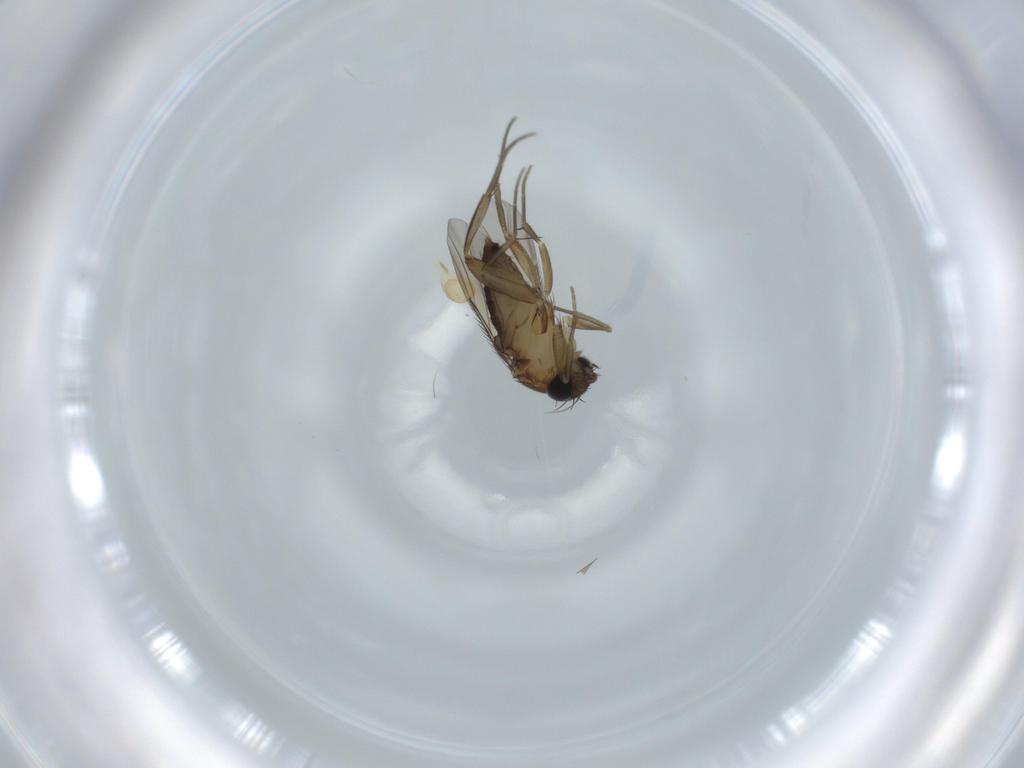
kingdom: Animalia
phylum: Arthropoda
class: Insecta
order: Diptera
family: Phoridae
